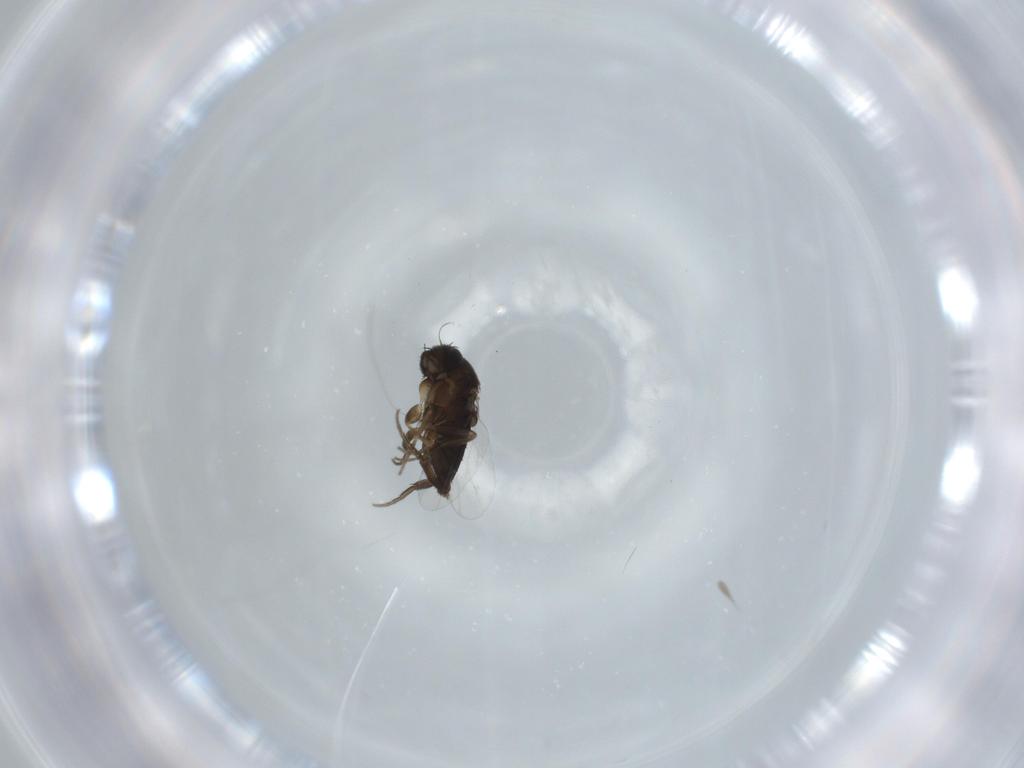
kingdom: Animalia
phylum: Arthropoda
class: Insecta
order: Diptera
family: Phoridae
